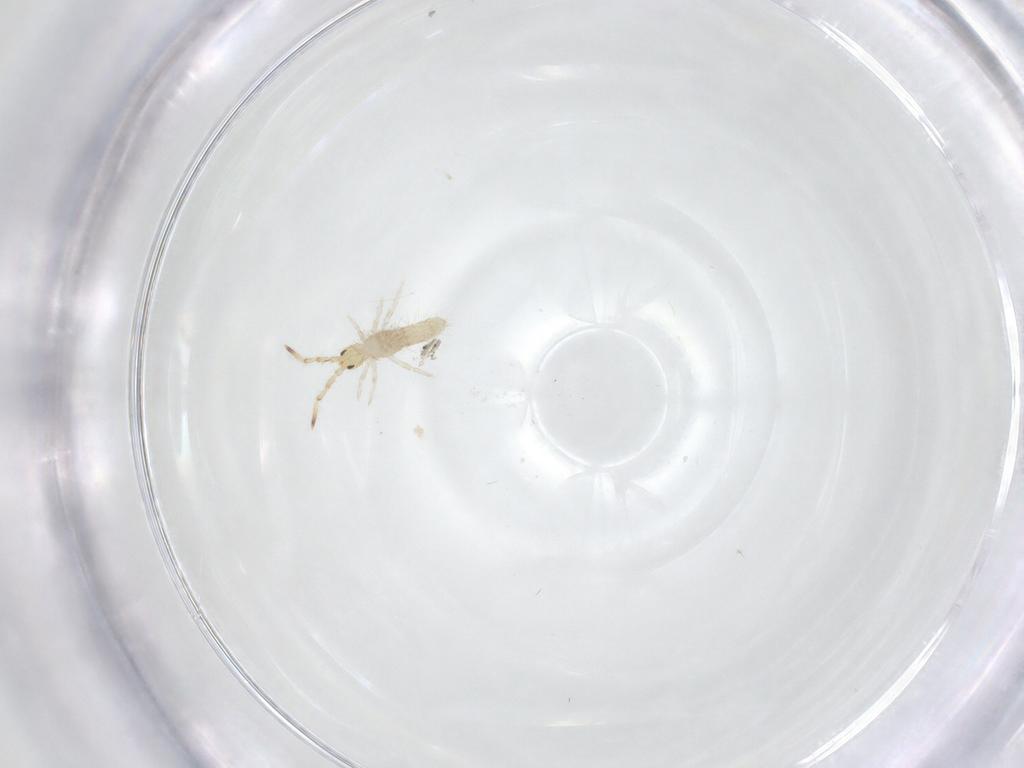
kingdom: Animalia
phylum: Arthropoda
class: Collembola
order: Entomobryomorpha
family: Entomobryidae
